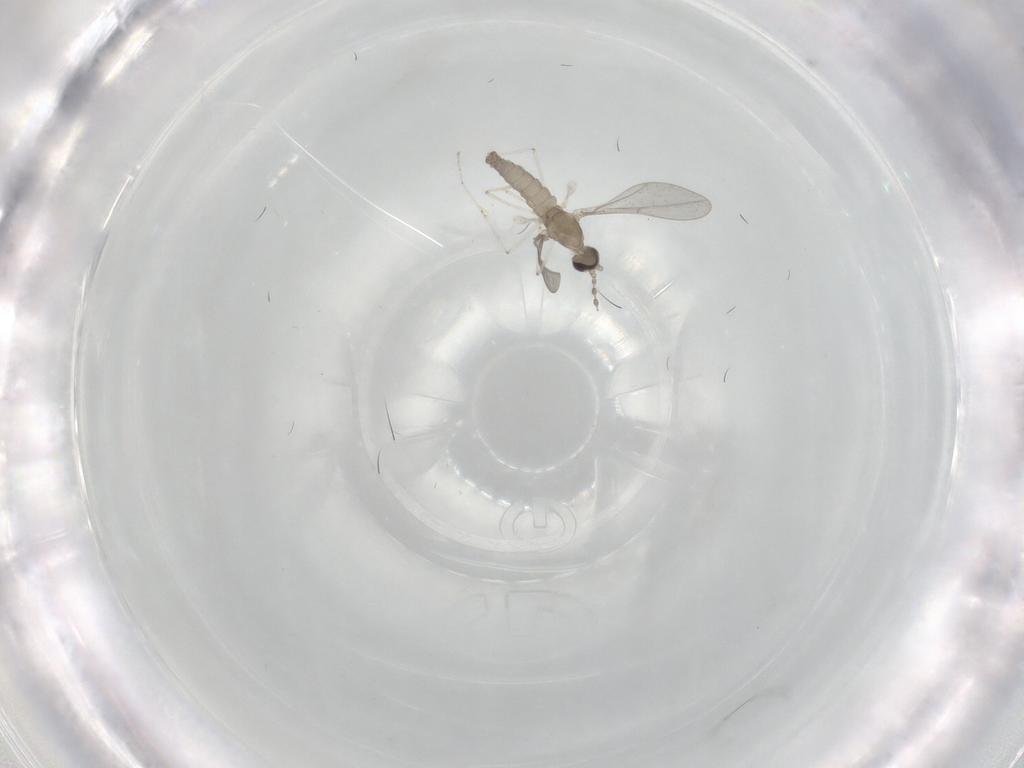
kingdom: Animalia
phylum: Arthropoda
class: Insecta
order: Diptera
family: Cecidomyiidae
